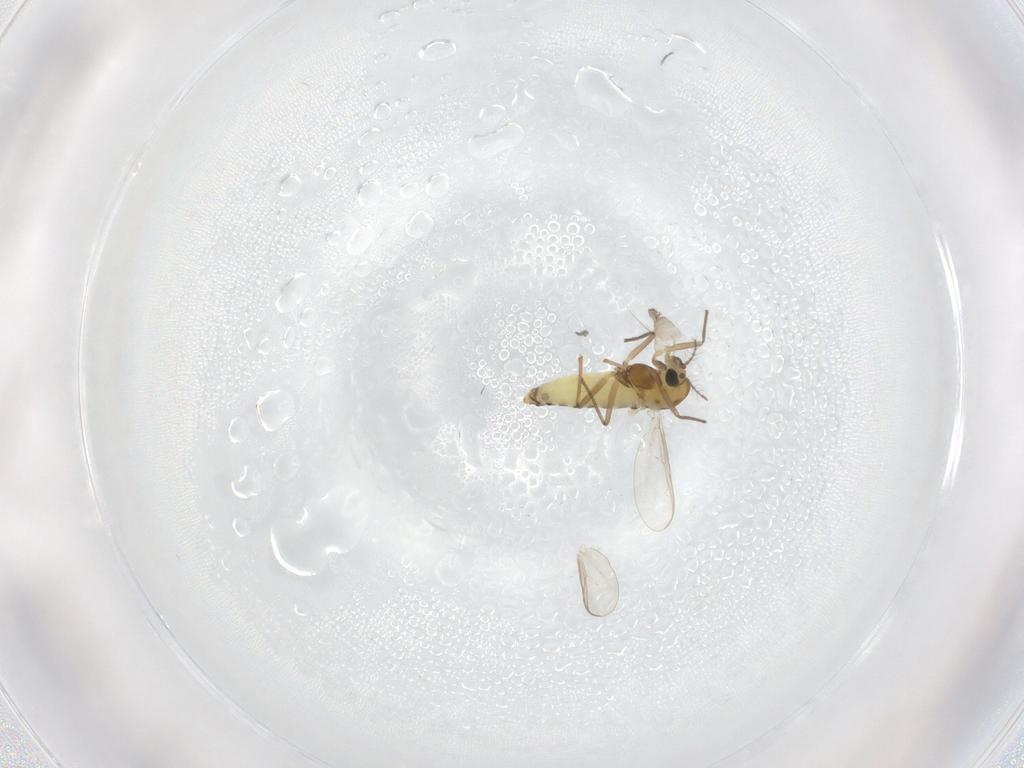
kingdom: Animalia
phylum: Arthropoda
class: Insecta
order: Diptera
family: Chironomidae
